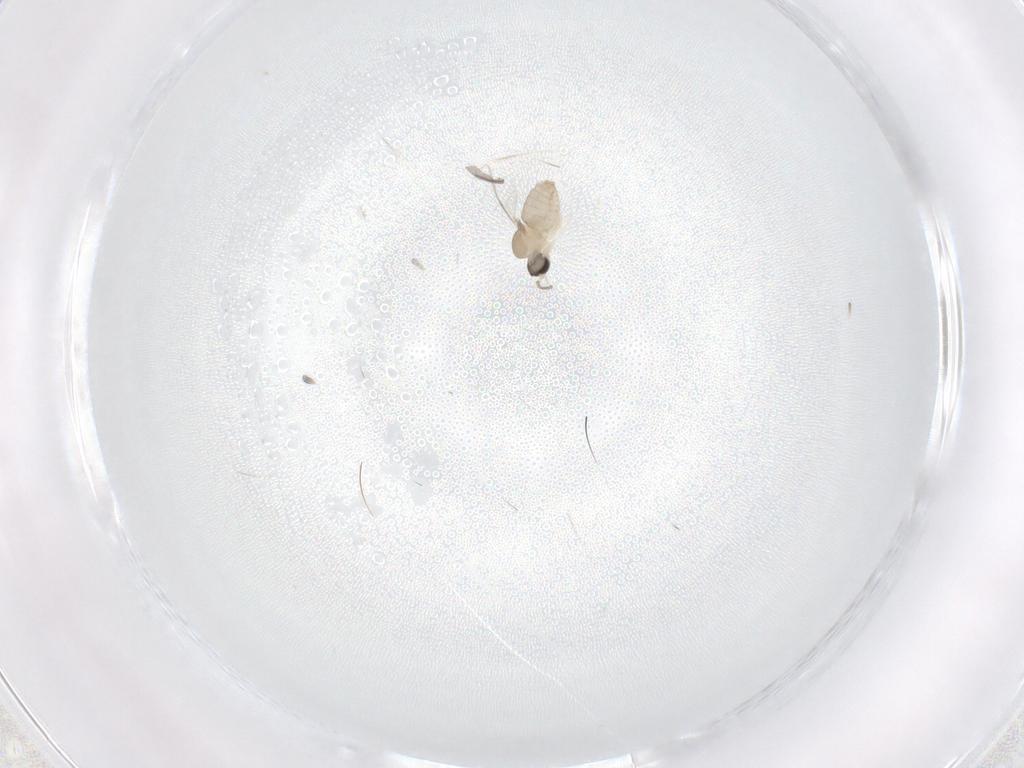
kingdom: Animalia
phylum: Arthropoda
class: Insecta
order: Diptera
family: Cecidomyiidae
